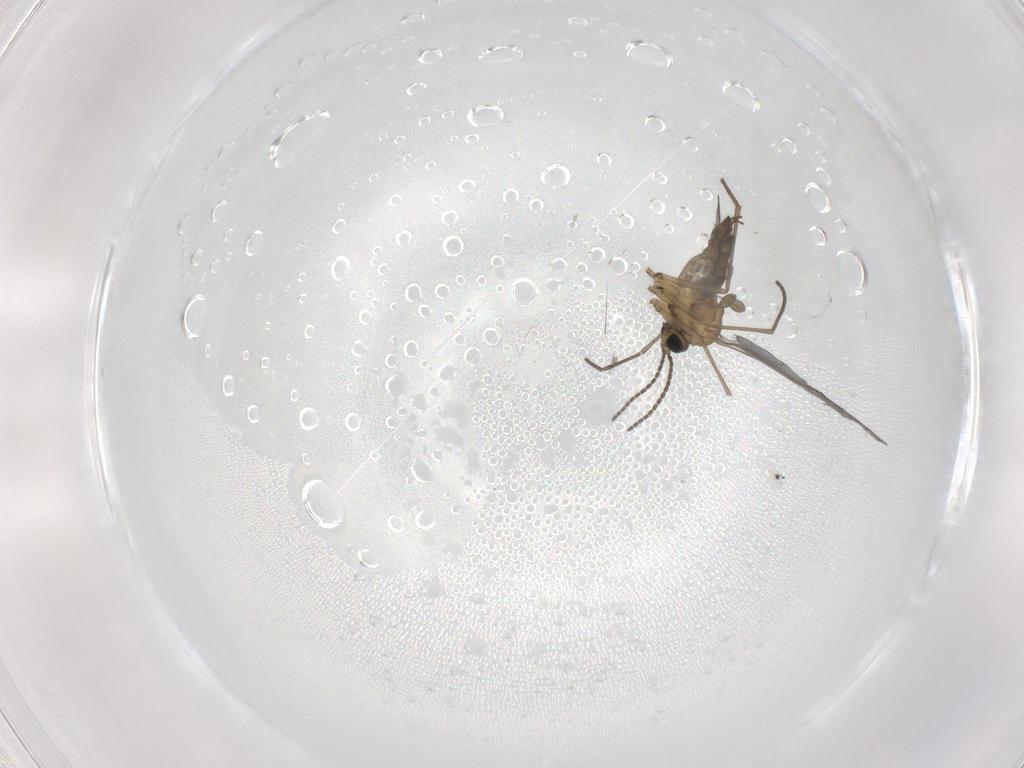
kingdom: Animalia
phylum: Arthropoda
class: Insecta
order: Diptera
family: Sciaridae
